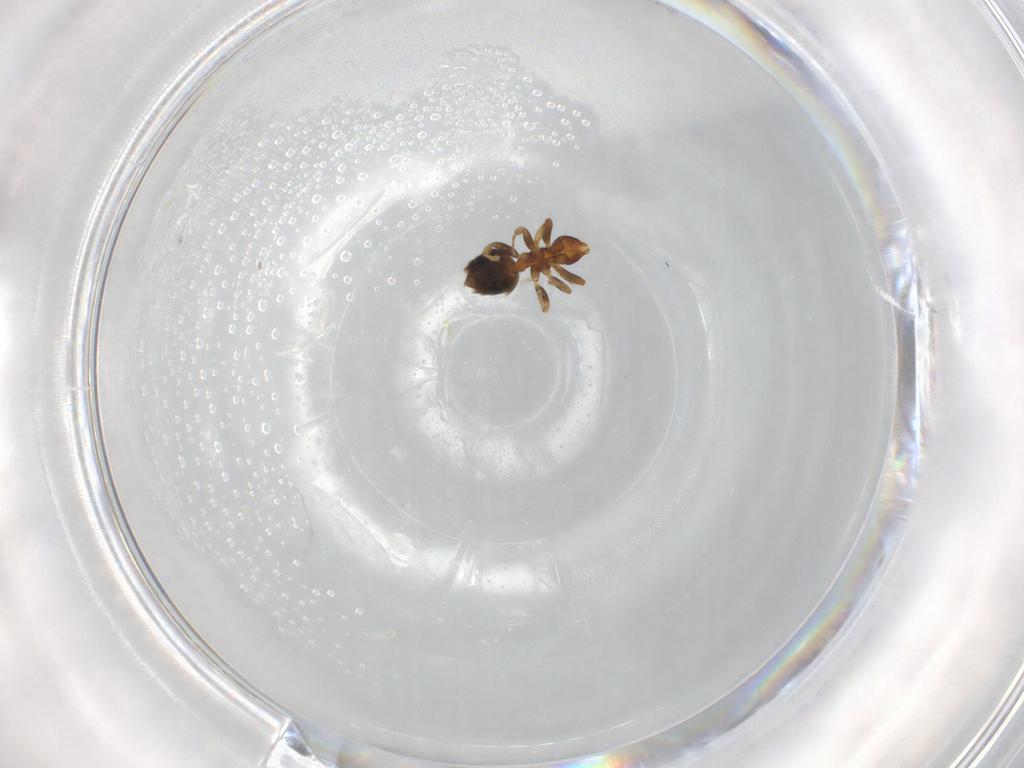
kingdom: Animalia
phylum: Arthropoda
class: Insecta
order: Hymenoptera
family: Formicidae
